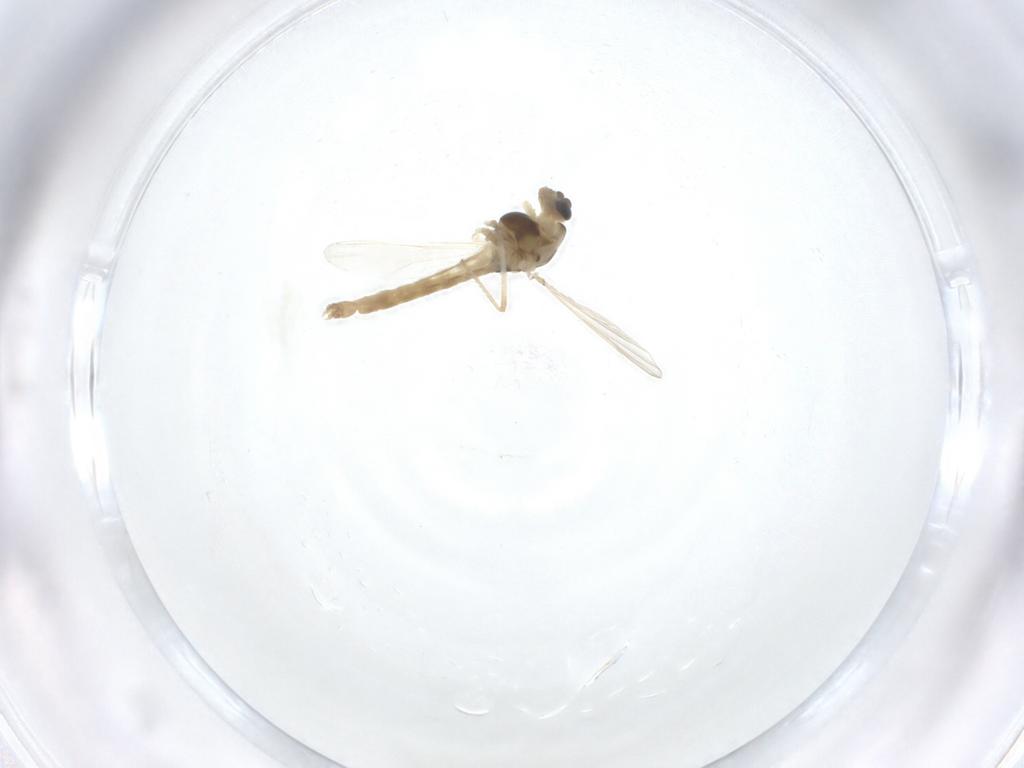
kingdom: Animalia
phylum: Arthropoda
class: Insecta
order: Diptera
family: Chironomidae
